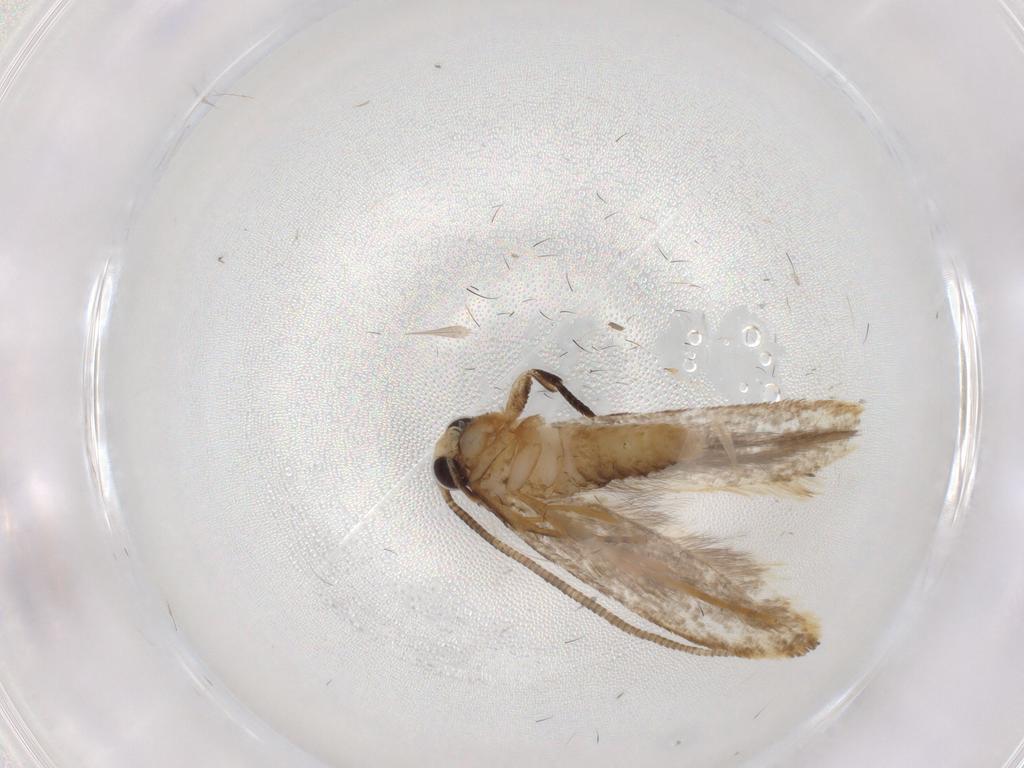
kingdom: Animalia
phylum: Arthropoda
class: Insecta
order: Lepidoptera
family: Tineidae
